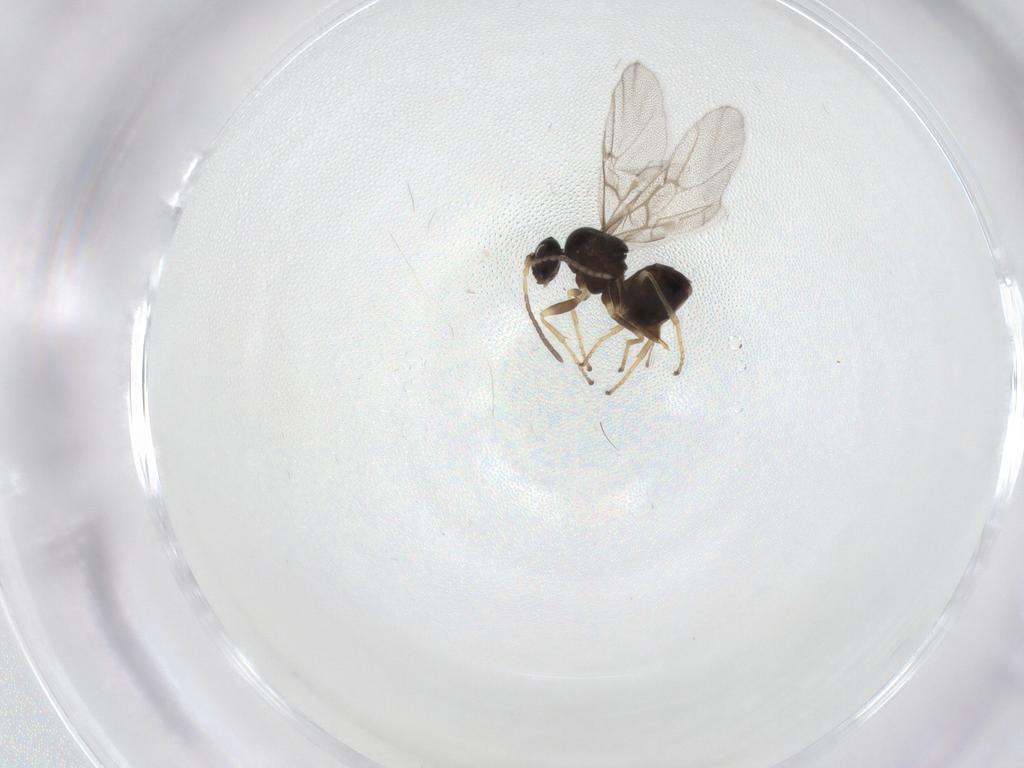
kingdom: Animalia
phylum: Arthropoda
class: Insecta
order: Hymenoptera
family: Cynipidae
